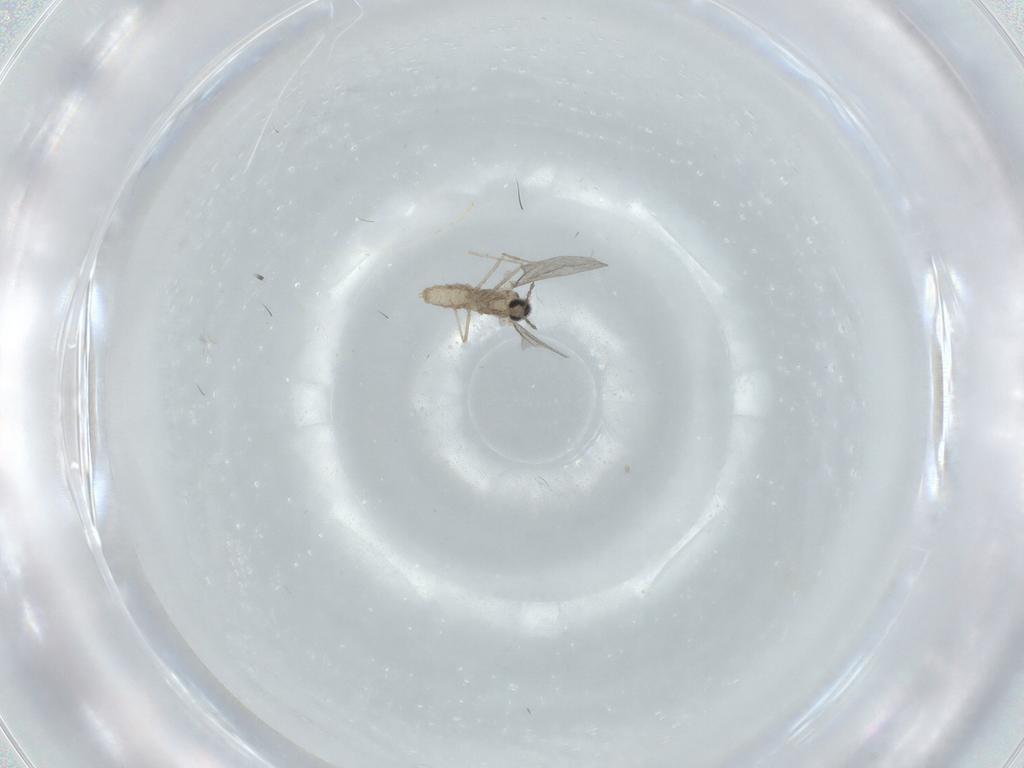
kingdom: Animalia
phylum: Arthropoda
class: Insecta
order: Diptera
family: Cecidomyiidae
